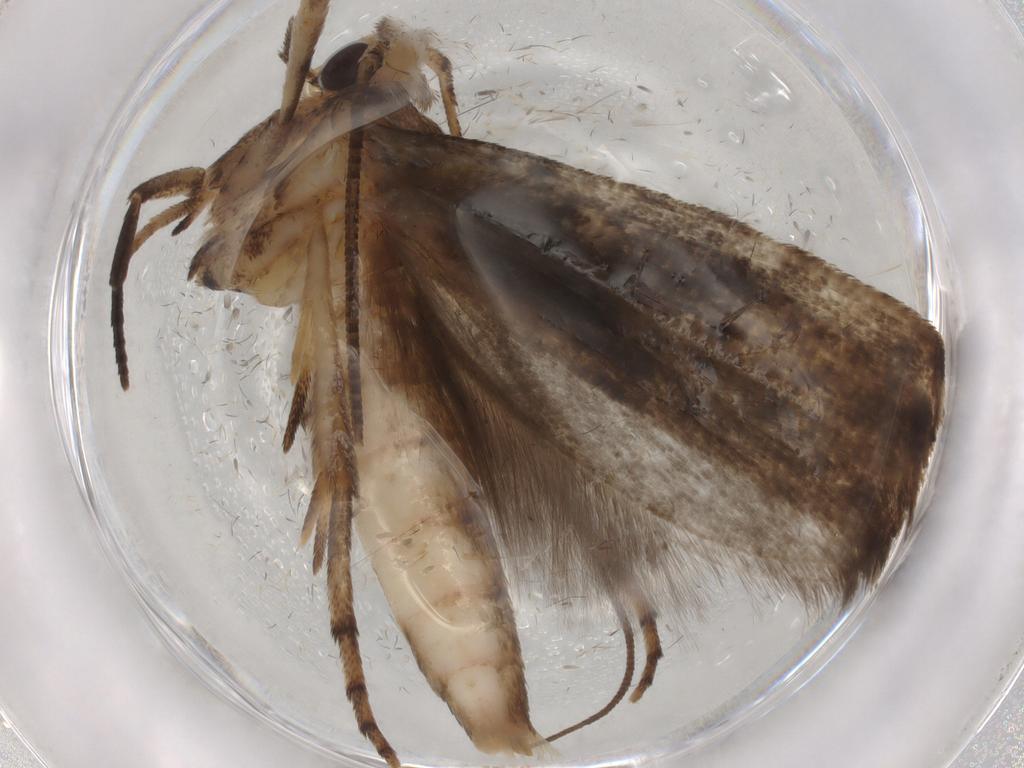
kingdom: Animalia
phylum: Arthropoda
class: Insecta
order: Lepidoptera
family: Yponomeutidae
